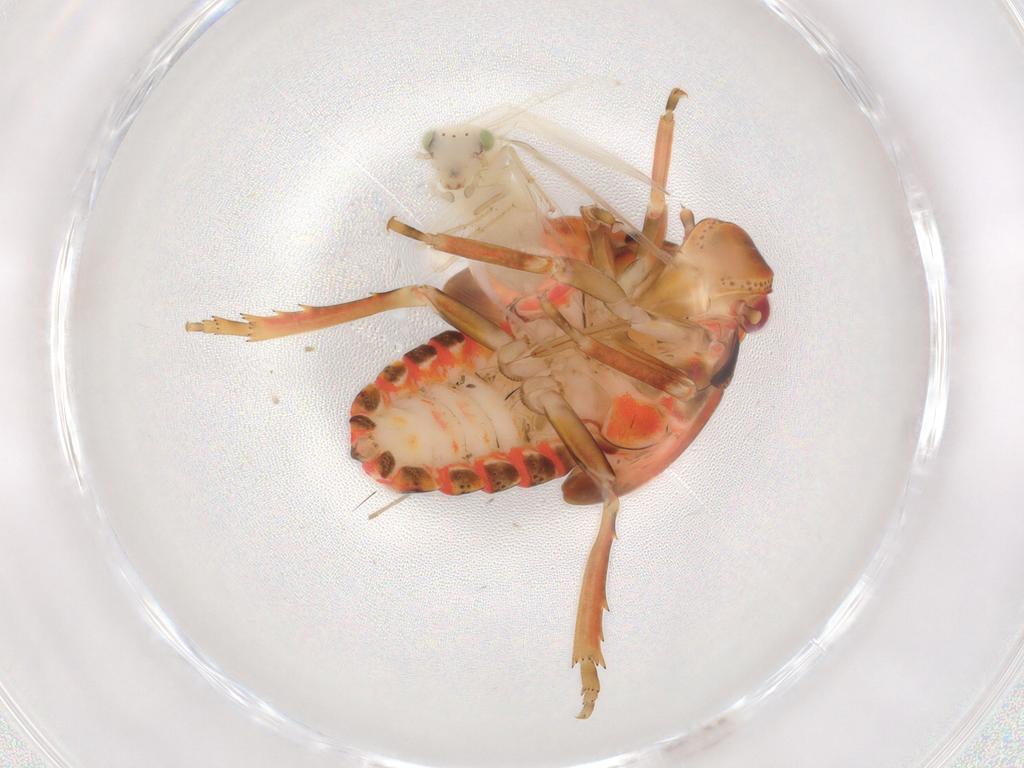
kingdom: Animalia
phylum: Arthropoda
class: Insecta
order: Hemiptera
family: Flatidae
